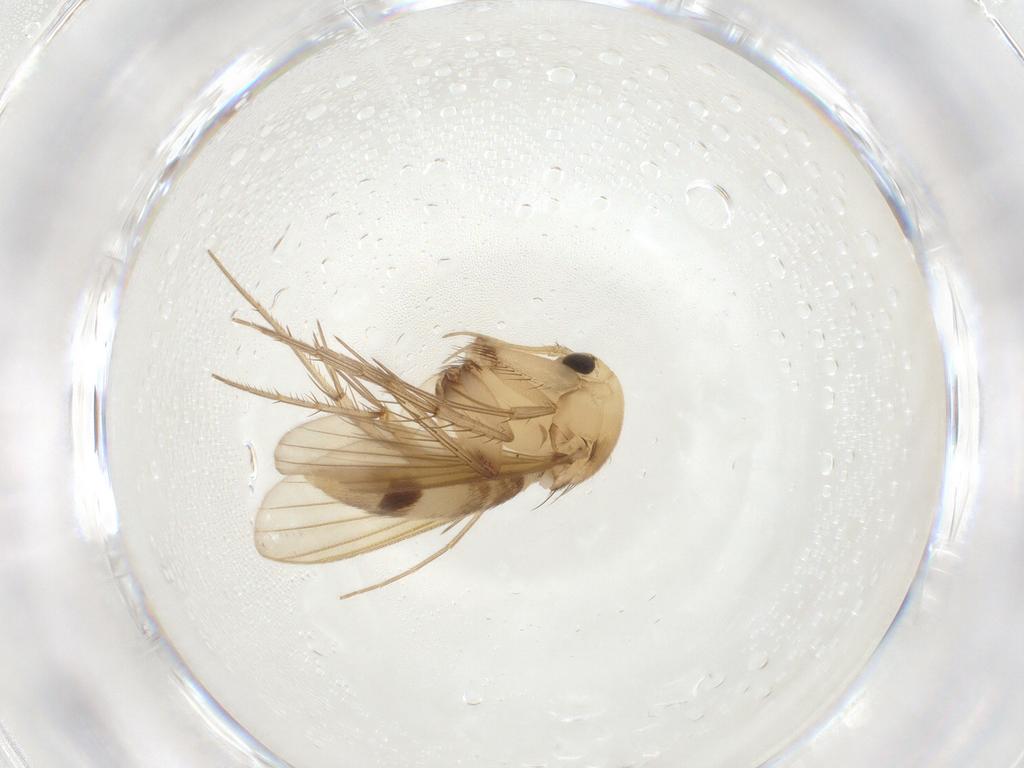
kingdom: Animalia
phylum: Arthropoda
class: Insecta
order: Diptera
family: Mycetophilidae
